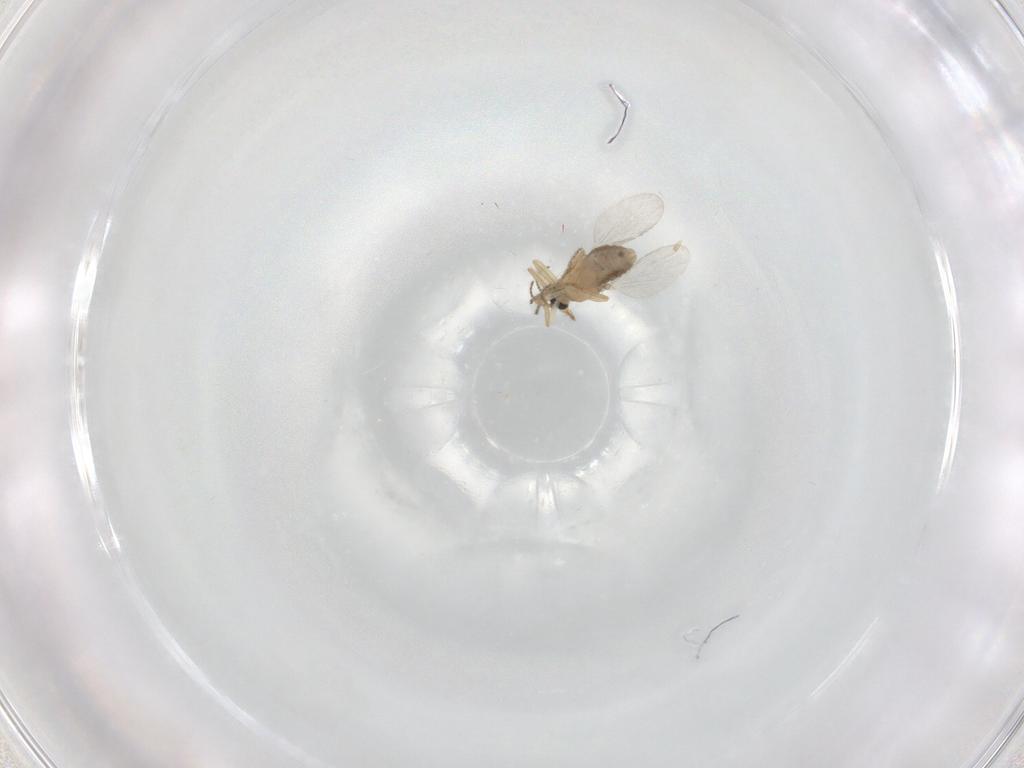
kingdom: Animalia
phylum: Arthropoda
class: Insecta
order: Diptera
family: Ceratopogonidae
